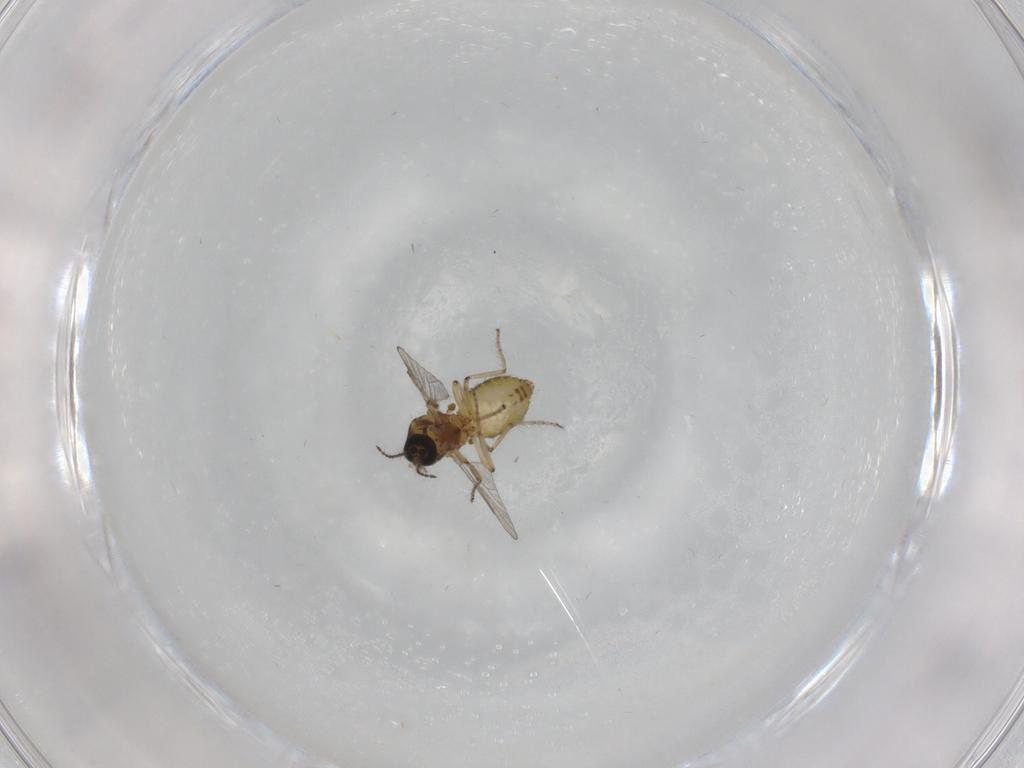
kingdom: Animalia
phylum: Arthropoda
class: Insecta
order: Diptera
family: Ceratopogonidae
